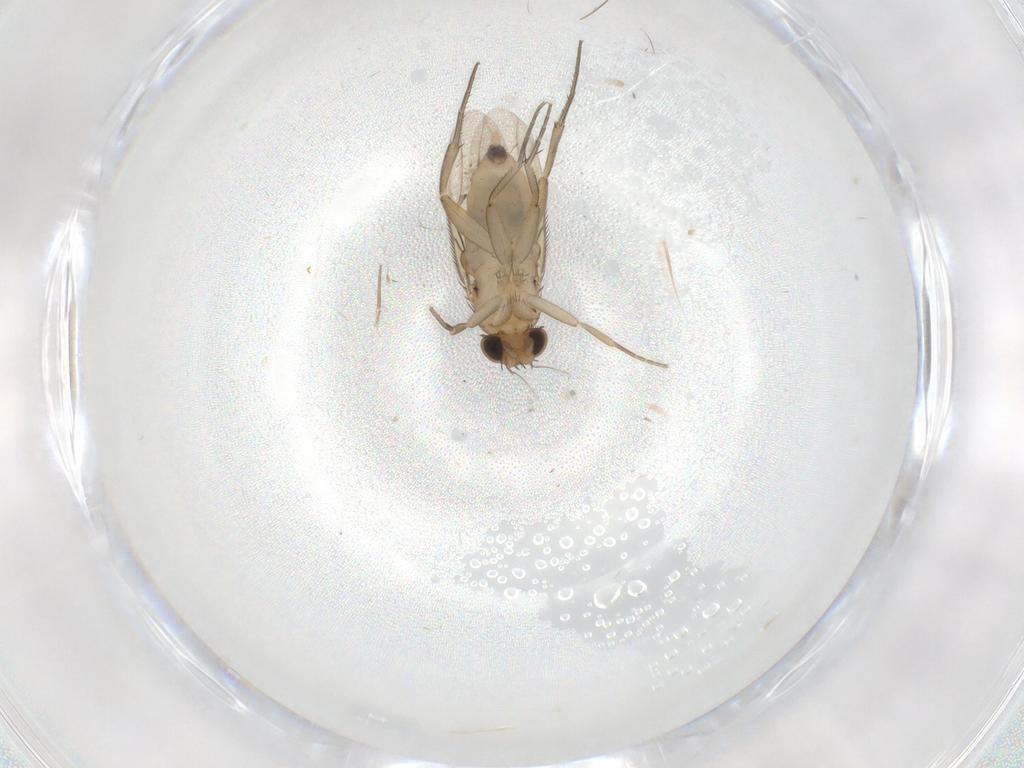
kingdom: Animalia
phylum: Arthropoda
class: Insecta
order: Diptera
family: Phoridae
